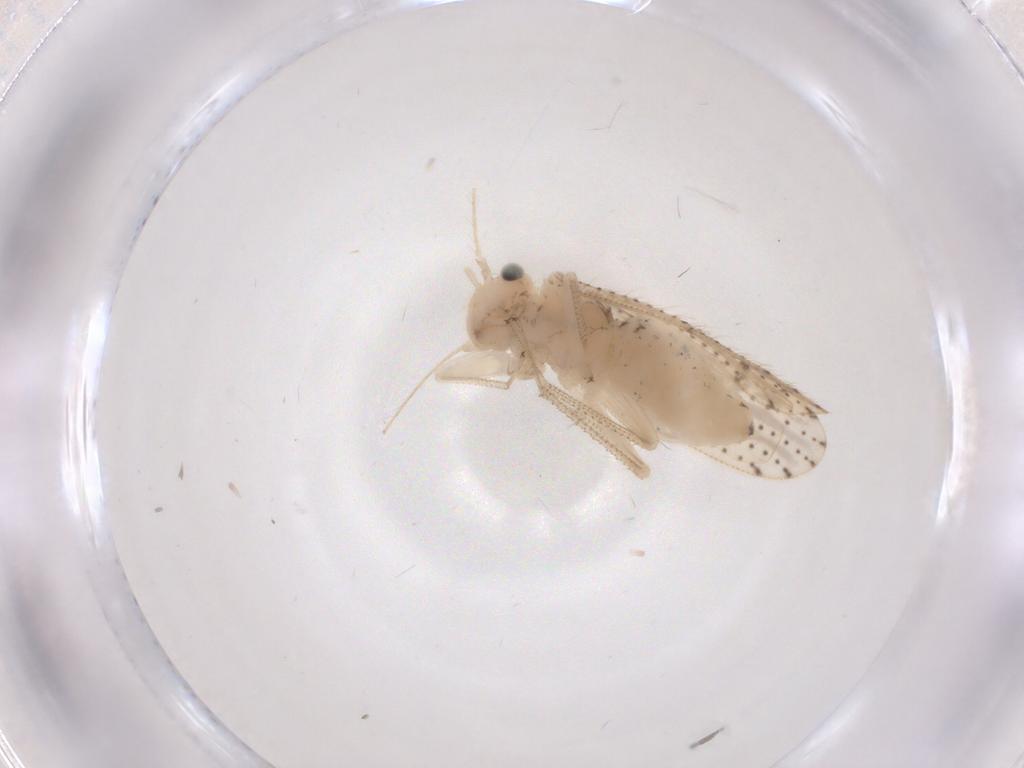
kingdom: Animalia
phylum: Arthropoda
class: Insecta
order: Psocodea
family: Myopsocidae
